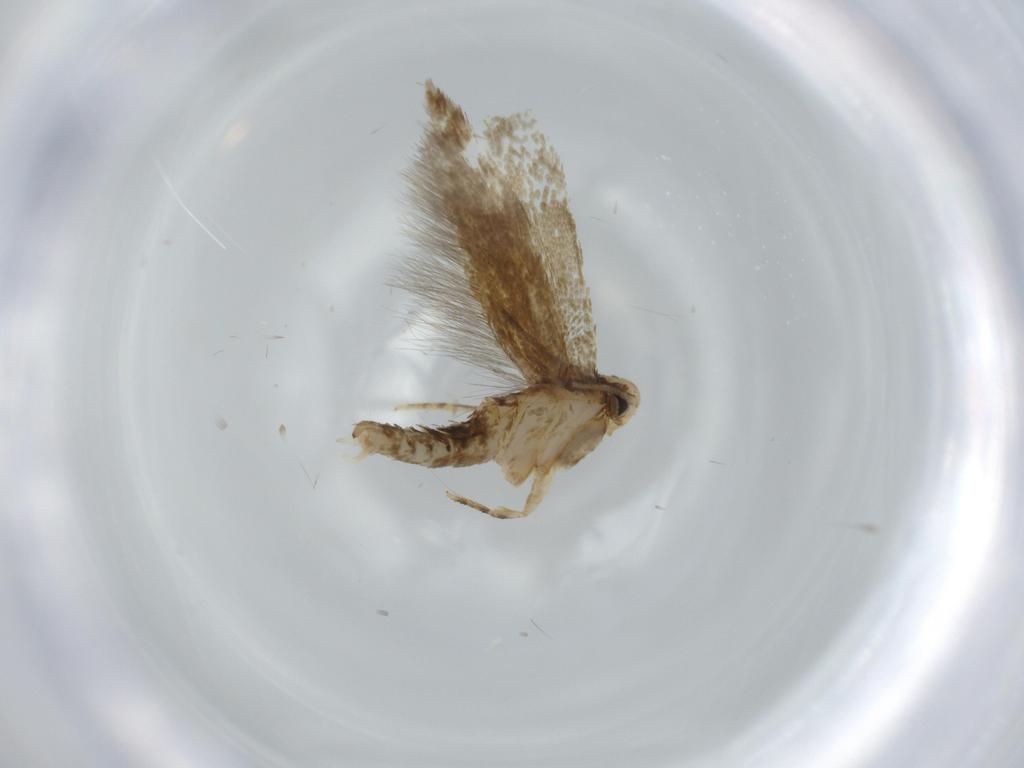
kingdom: Animalia
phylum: Arthropoda
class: Insecta
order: Lepidoptera
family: Tineidae
